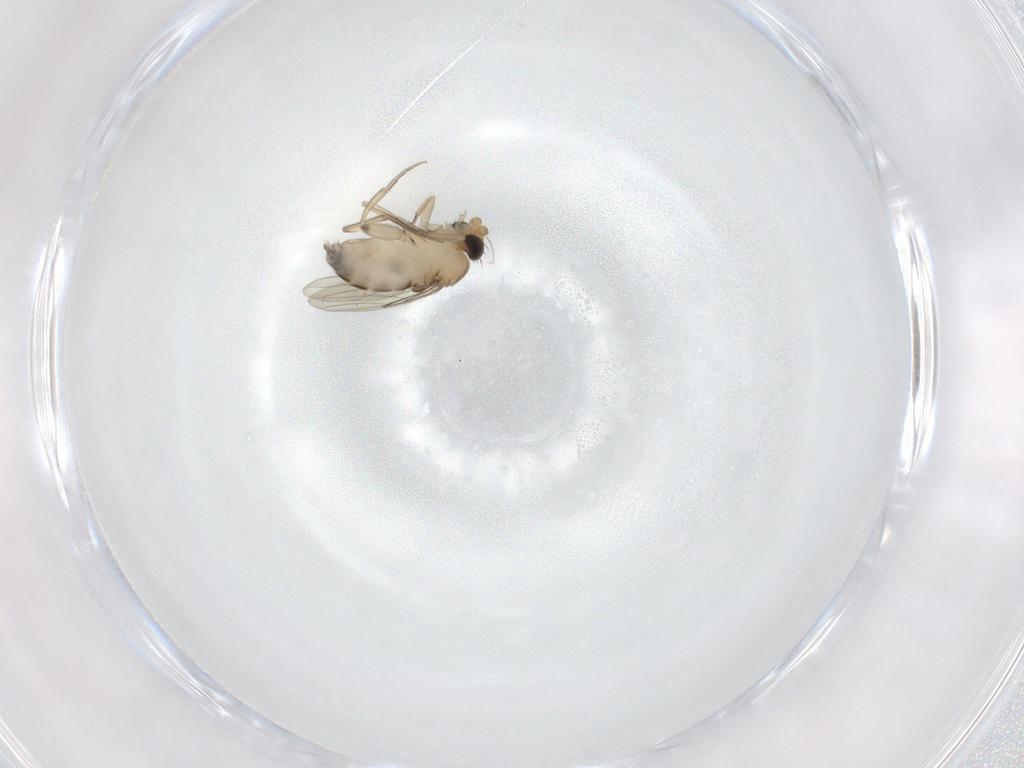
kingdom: Animalia
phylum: Arthropoda
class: Insecta
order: Diptera
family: Phoridae
